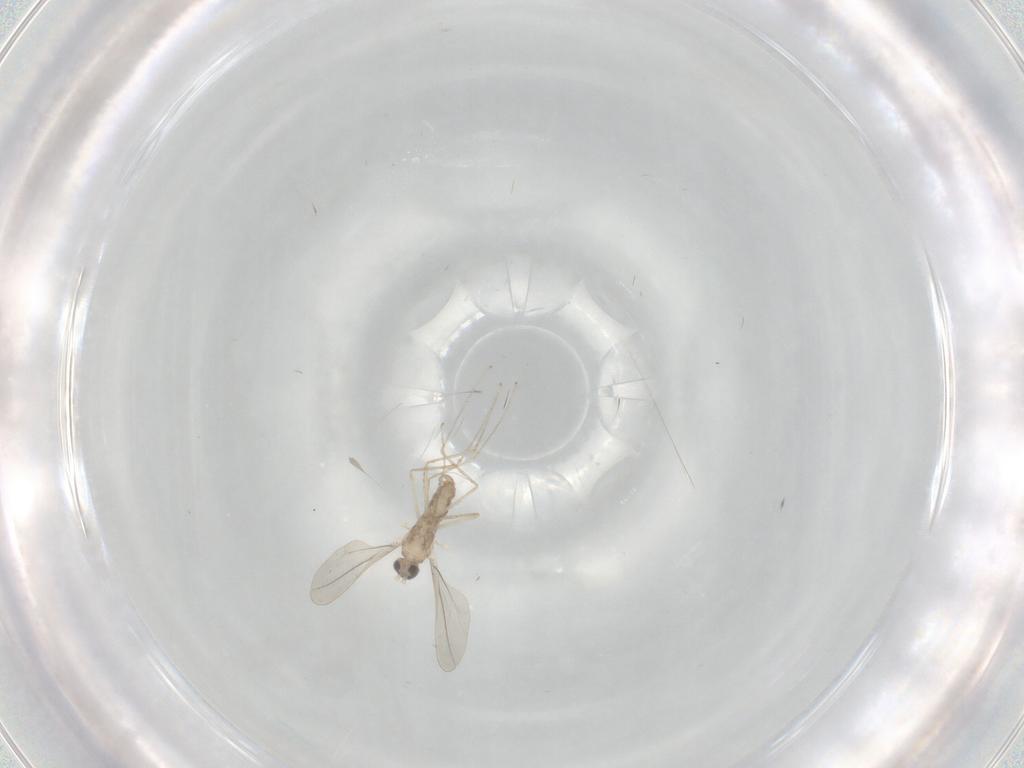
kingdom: Animalia
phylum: Arthropoda
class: Insecta
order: Diptera
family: Cecidomyiidae
